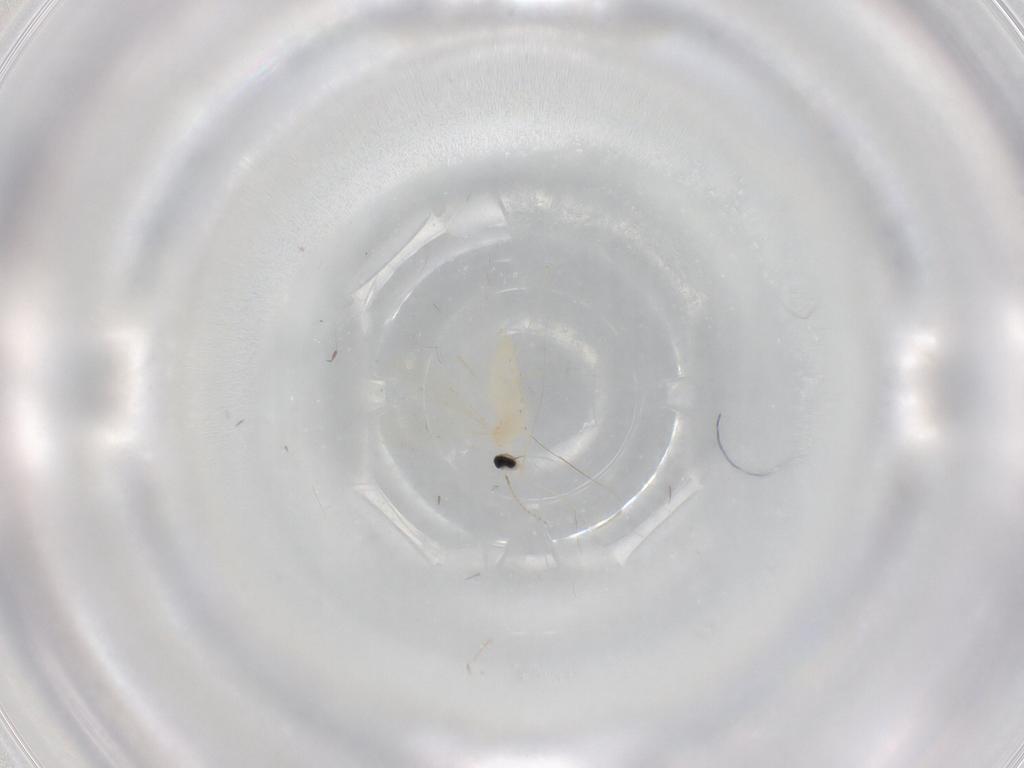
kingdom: Animalia
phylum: Arthropoda
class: Insecta
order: Diptera
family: Cecidomyiidae
